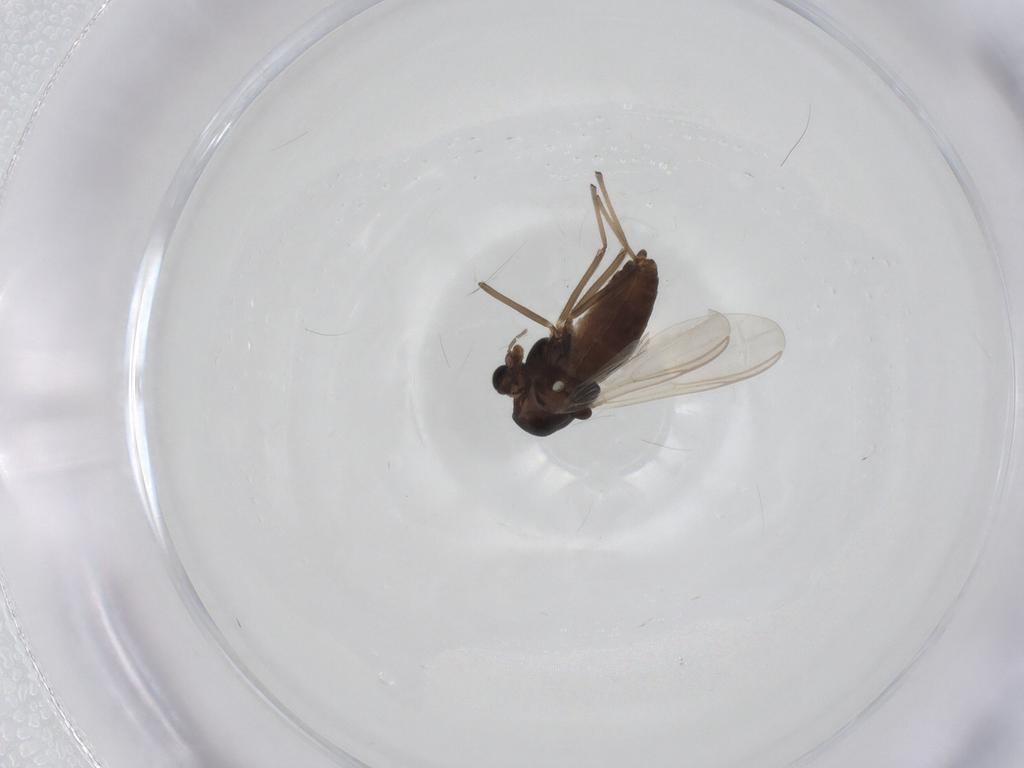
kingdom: Animalia
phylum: Arthropoda
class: Insecta
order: Diptera
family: Chironomidae
